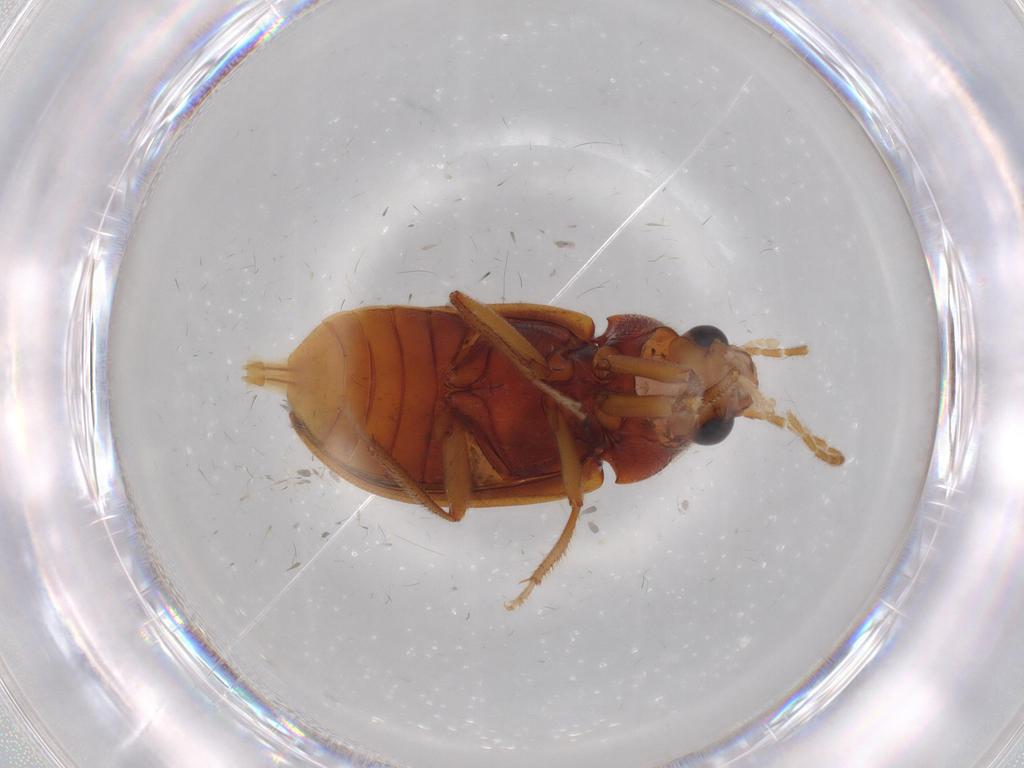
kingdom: Animalia
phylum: Arthropoda
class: Insecta
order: Coleoptera
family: Ptilodactylidae
